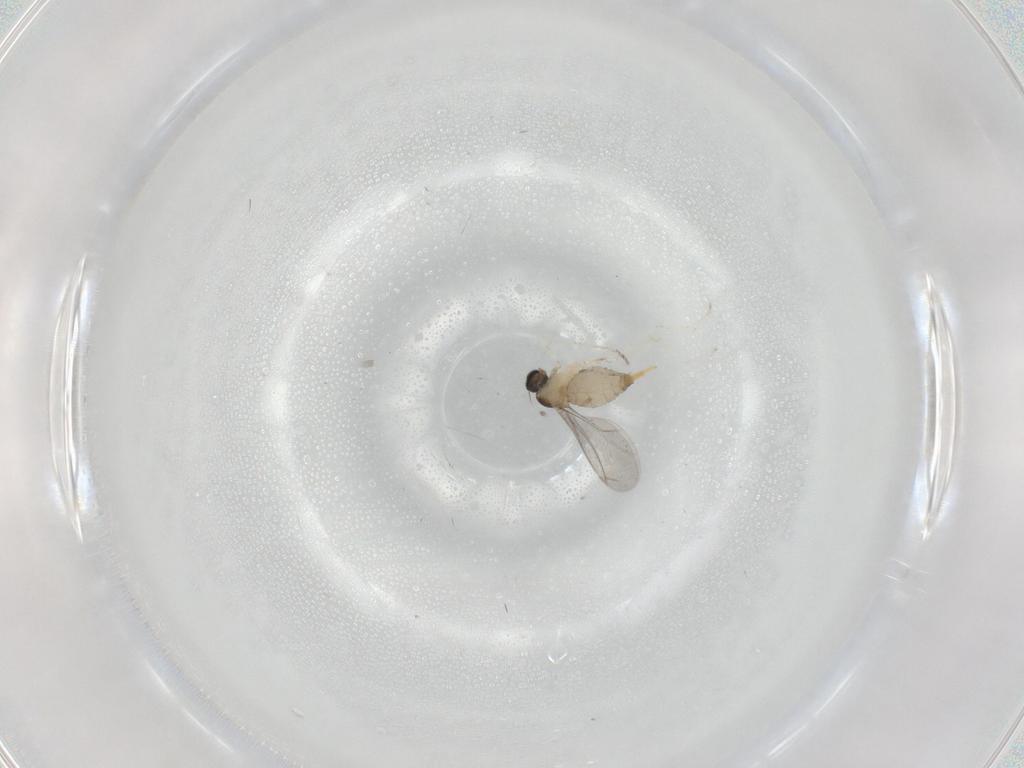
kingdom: Animalia
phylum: Arthropoda
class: Insecta
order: Diptera
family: Cecidomyiidae
